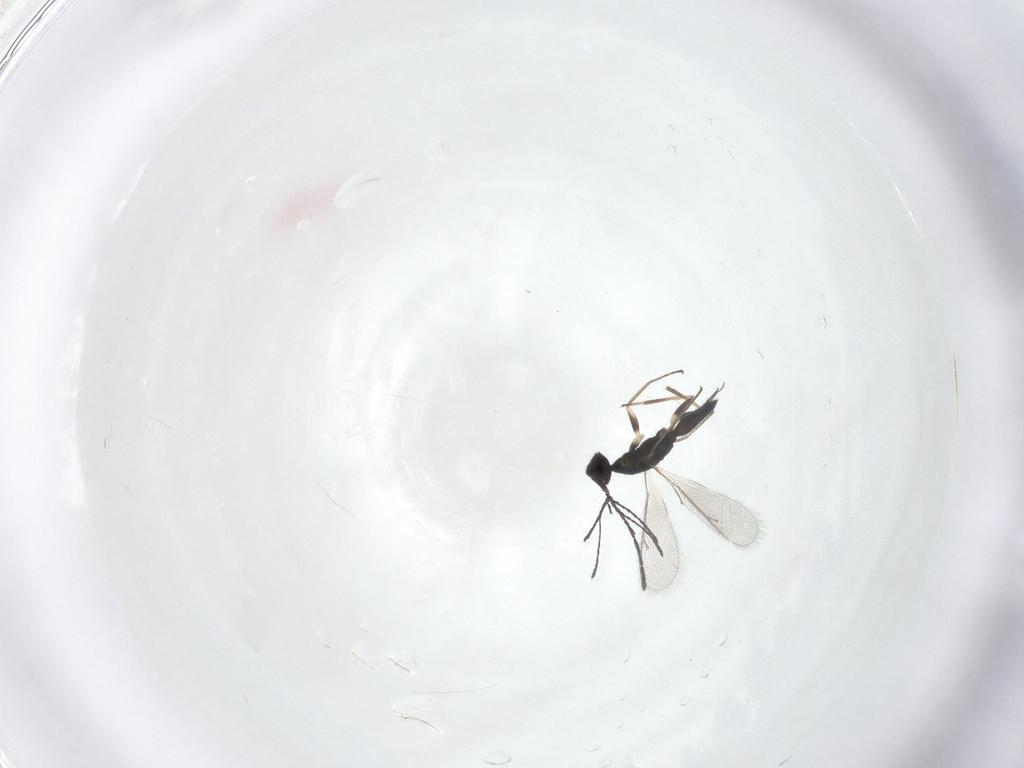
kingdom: Animalia
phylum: Arthropoda
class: Insecta
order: Hymenoptera
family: Eulophidae
